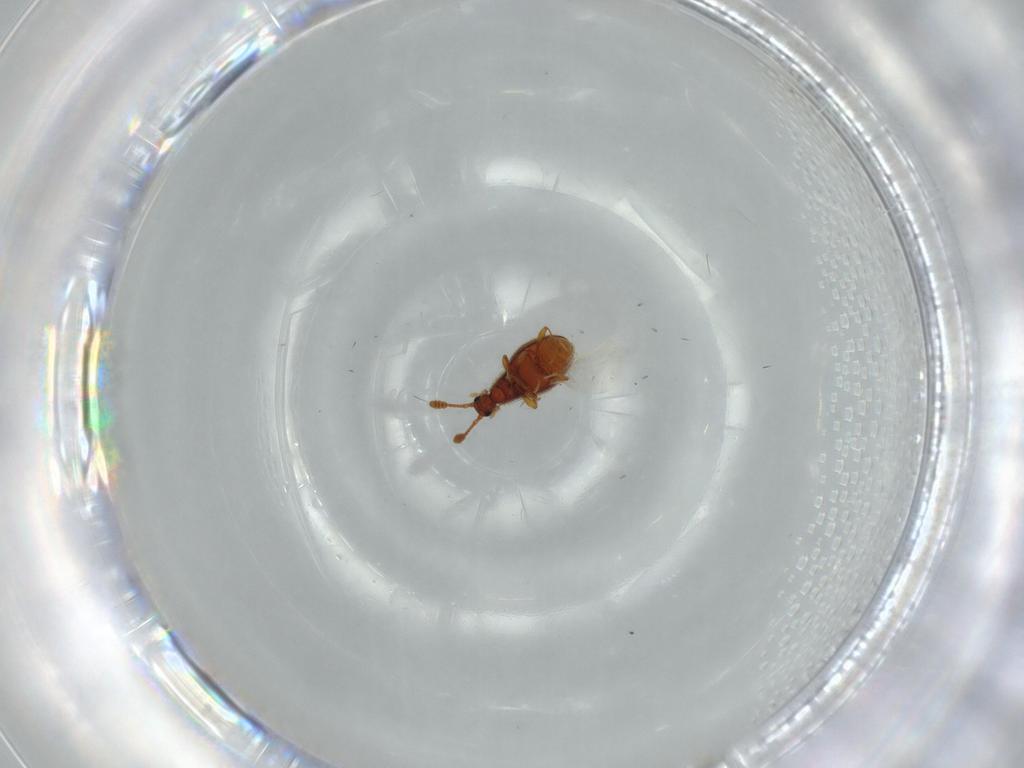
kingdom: Animalia
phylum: Arthropoda
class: Insecta
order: Coleoptera
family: Staphylinidae
